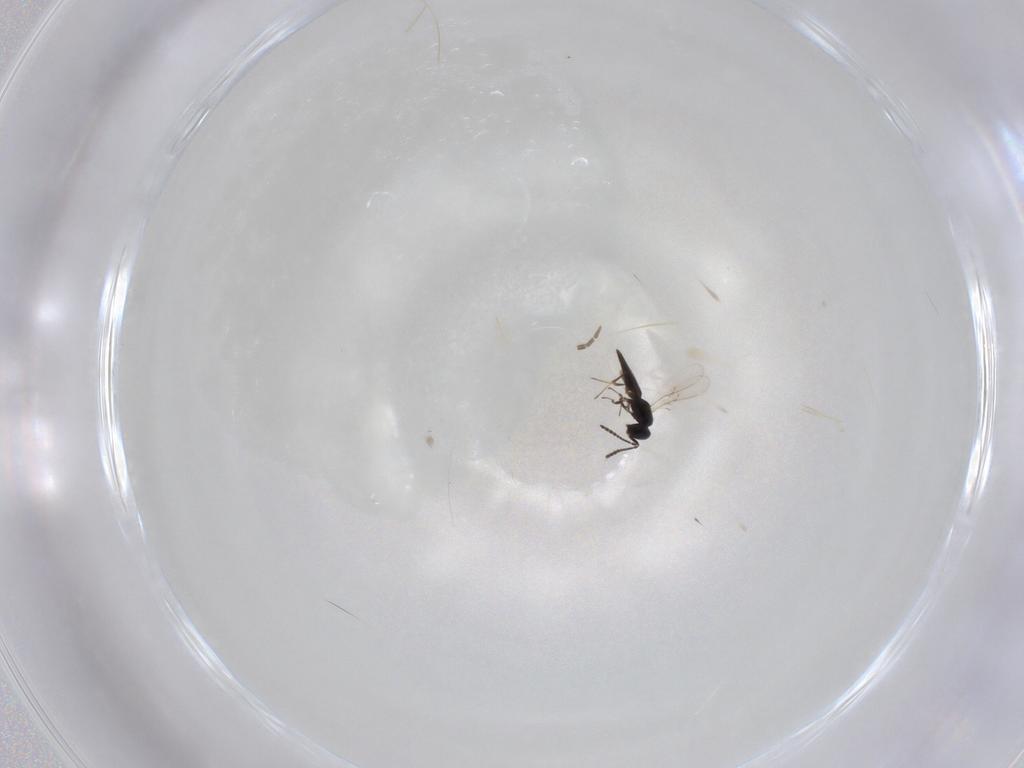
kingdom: Animalia
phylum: Arthropoda
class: Insecta
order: Hymenoptera
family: Scelionidae
